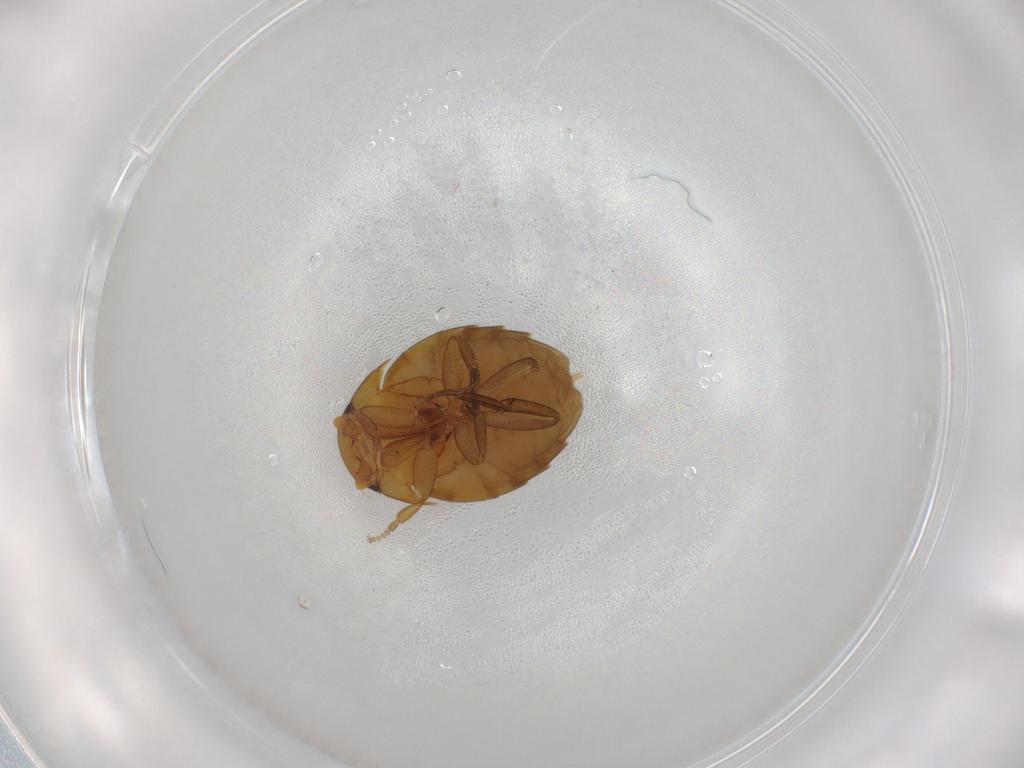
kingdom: Animalia
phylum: Arthropoda
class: Insecta
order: Diptera
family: Phoridae
